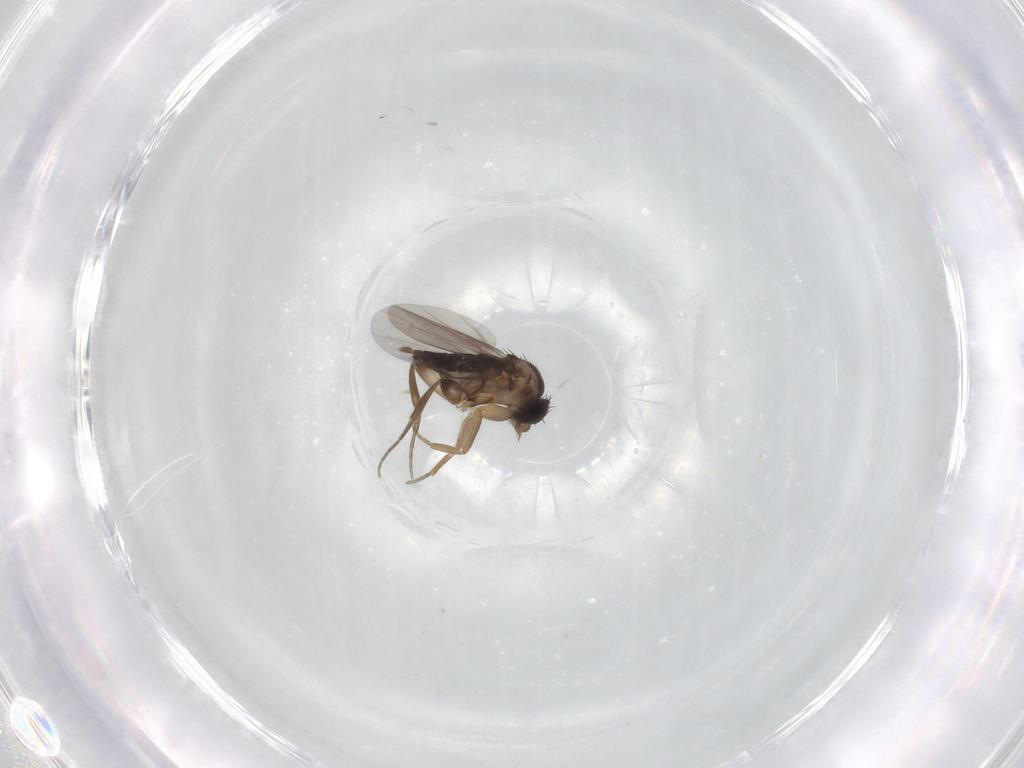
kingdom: Animalia
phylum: Arthropoda
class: Insecta
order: Diptera
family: Phoridae
